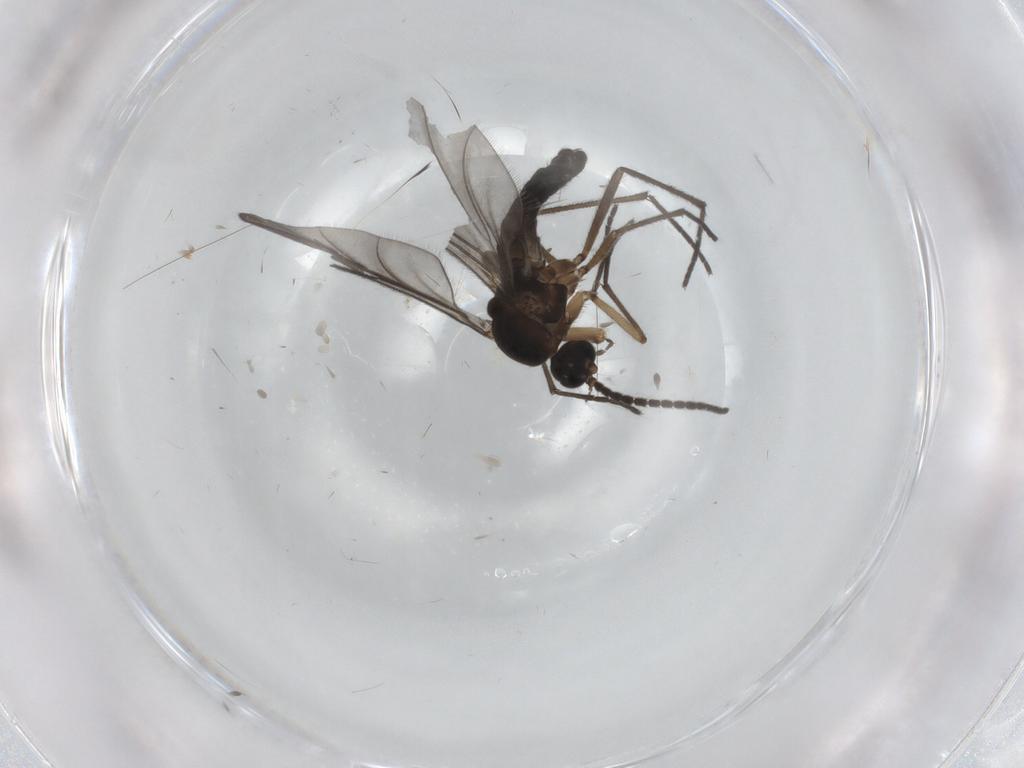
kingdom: Animalia
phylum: Arthropoda
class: Insecta
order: Diptera
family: Sciaridae
